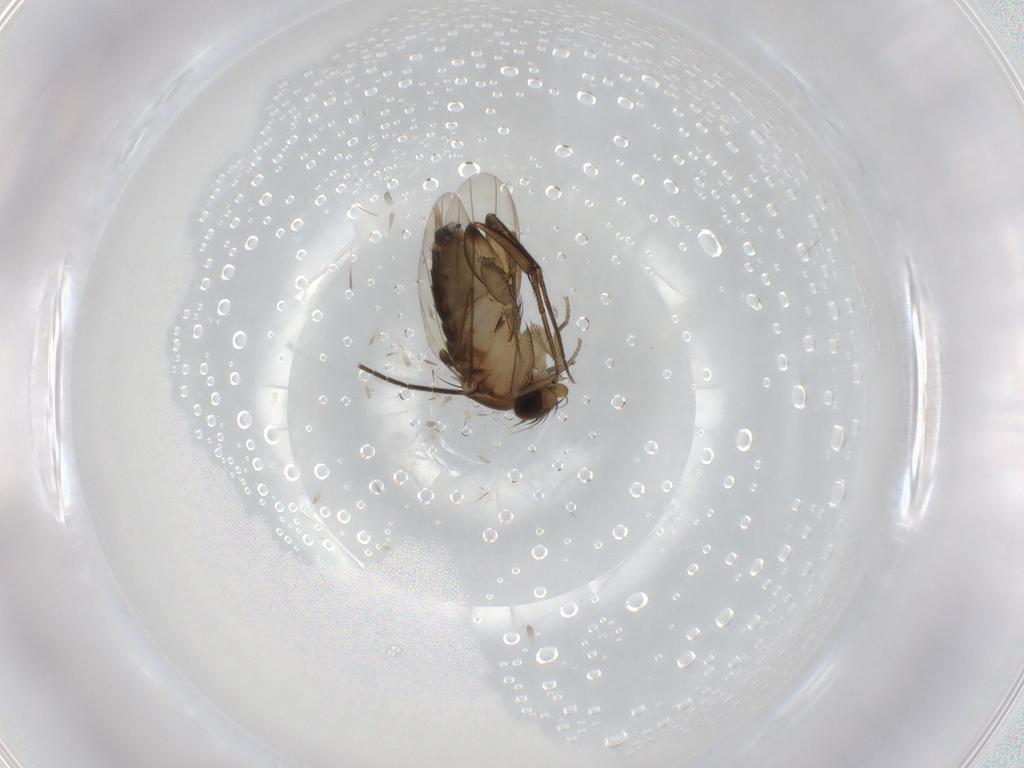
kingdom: Animalia
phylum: Arthropoda
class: Insecta
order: Diptera
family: Phoridae
